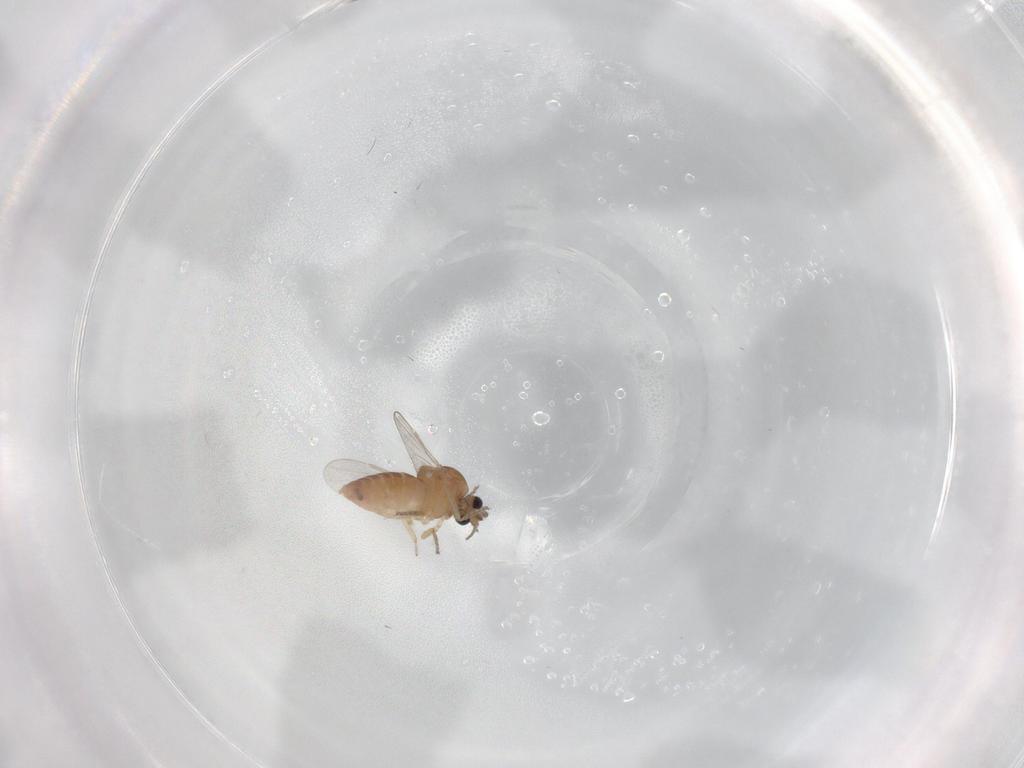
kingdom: Animalia
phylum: Arthropoda
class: Insecta
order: Diptera
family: Ceratopogonidae
